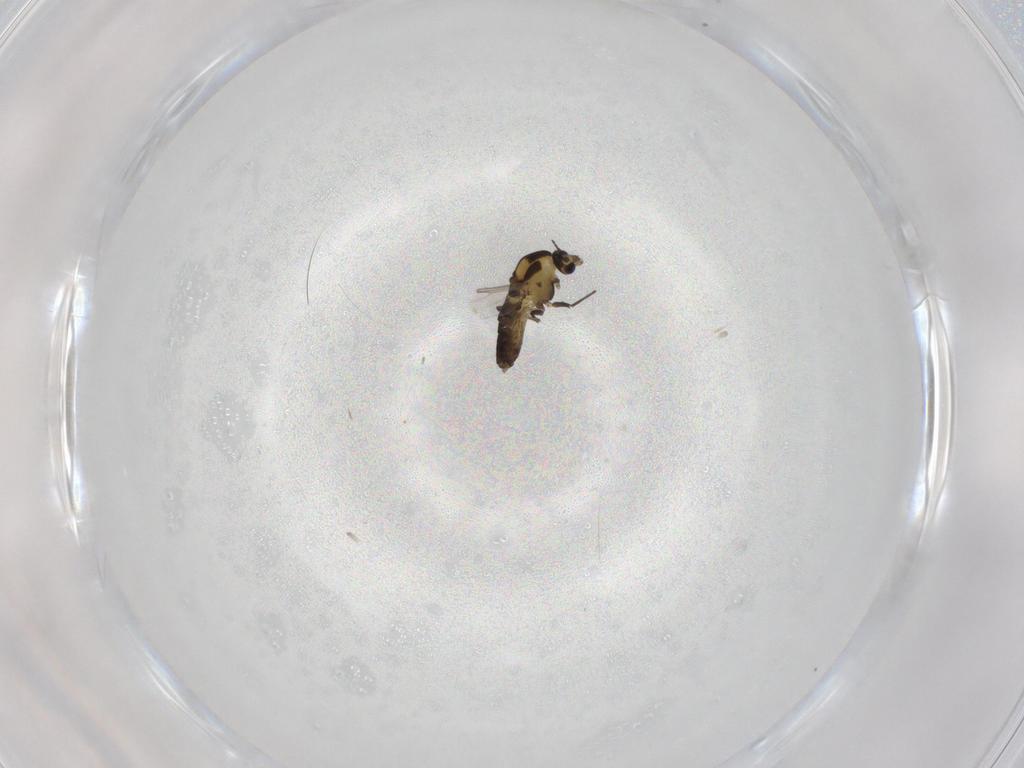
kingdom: Animalia
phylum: Arthropoda
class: Insecta
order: Diptera
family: Chironomidae
